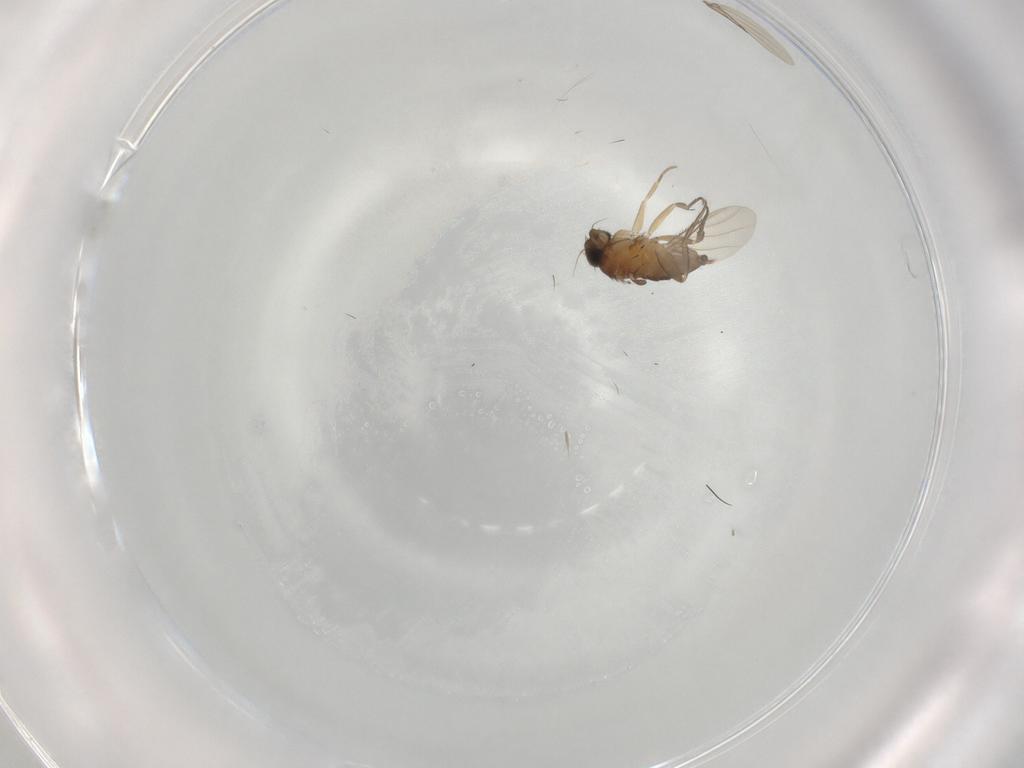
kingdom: Animalia
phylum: Arthropoda
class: Insecta
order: Diptera
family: Phoridae
